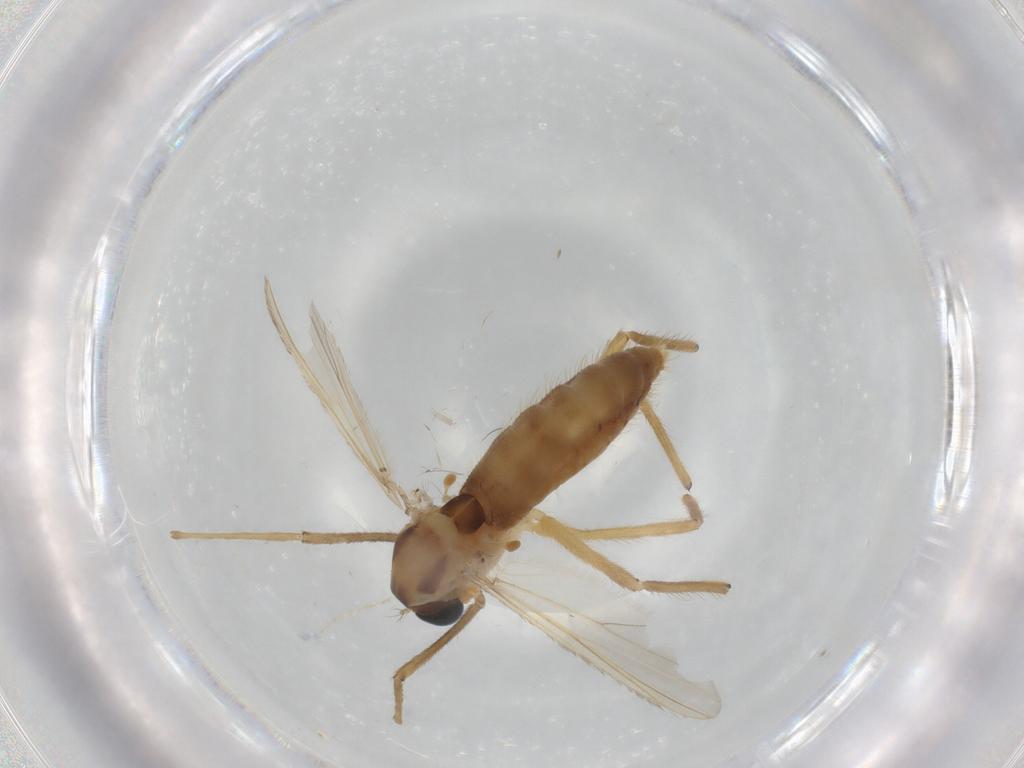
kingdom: Animalia
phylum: Arthropoda
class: Insecta
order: Diptera
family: Chironomidae
